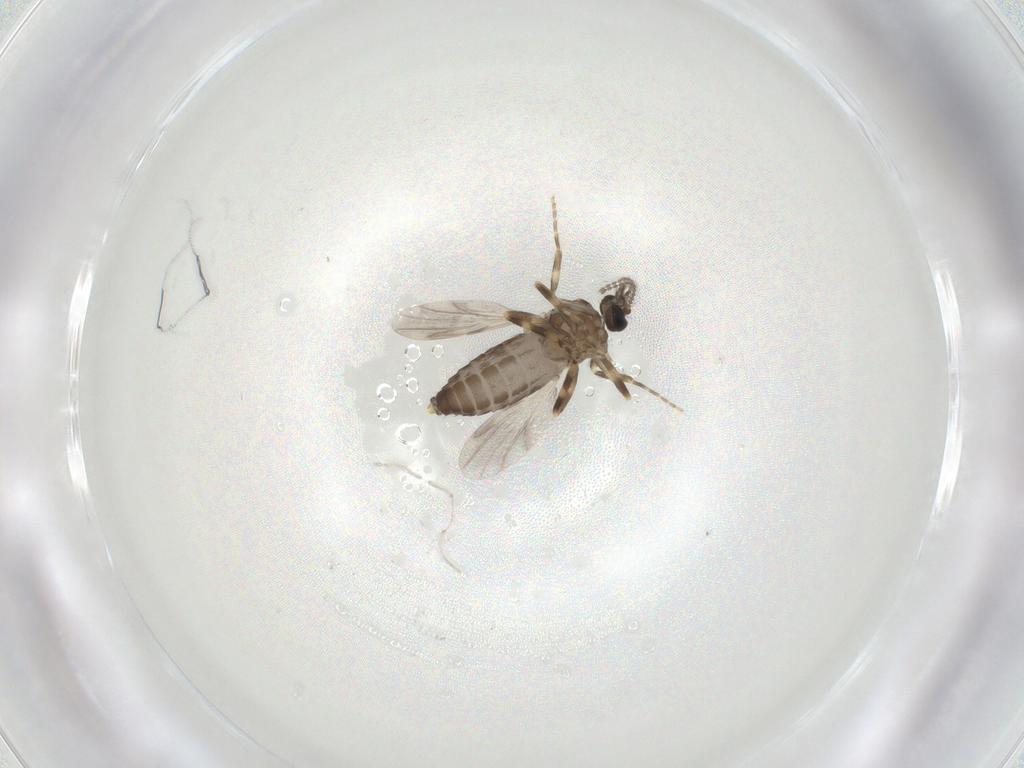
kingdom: Animalia
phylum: Arthropoda
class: Insecta
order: Diptera
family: Ceratopogonidae
